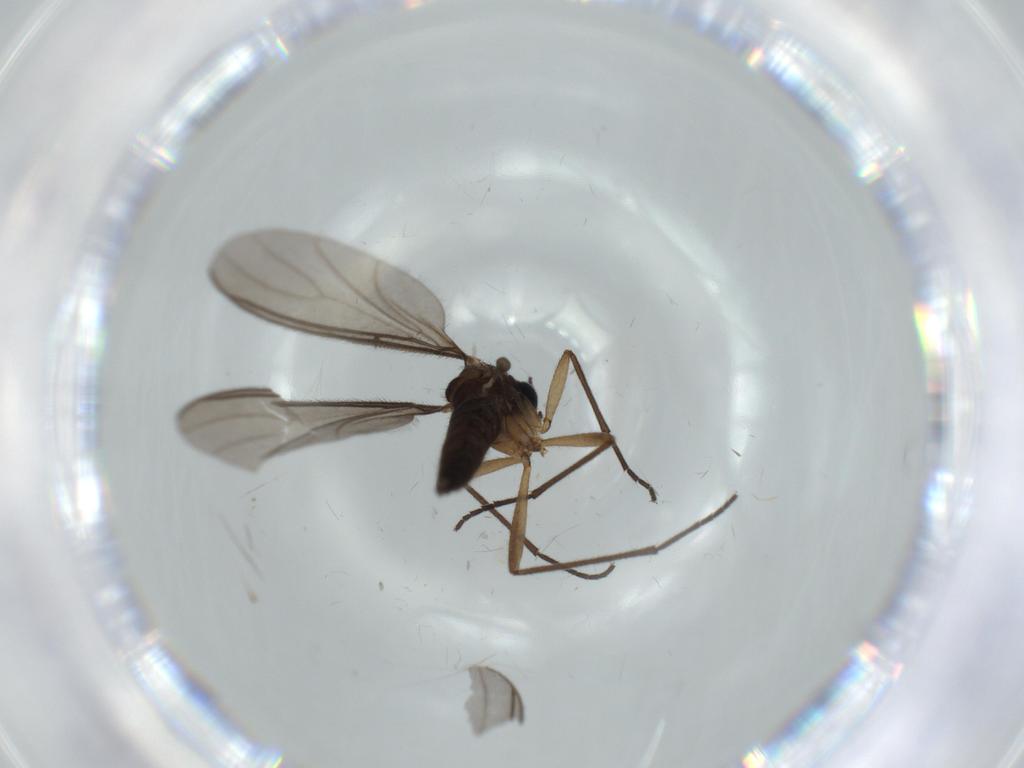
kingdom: Animalia
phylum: Arthropoda
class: Insecta
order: Diptera
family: Sciaridae
